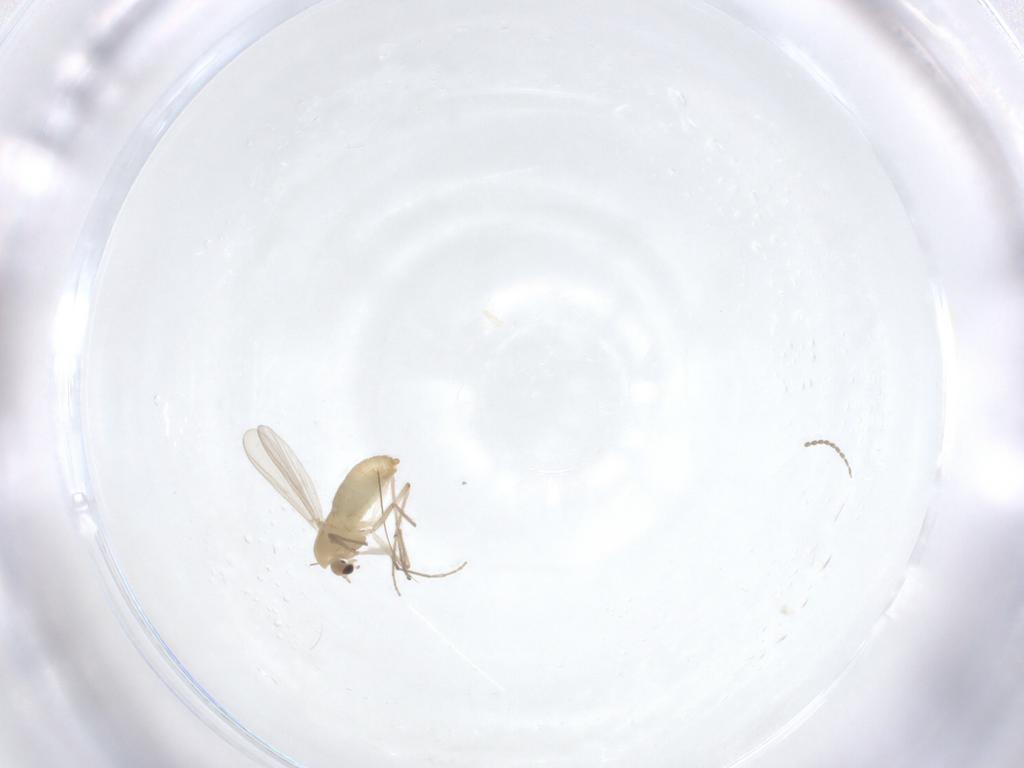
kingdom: Animalia
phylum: Arthropoda
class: Insecta
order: Diptera
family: Chironomidae
